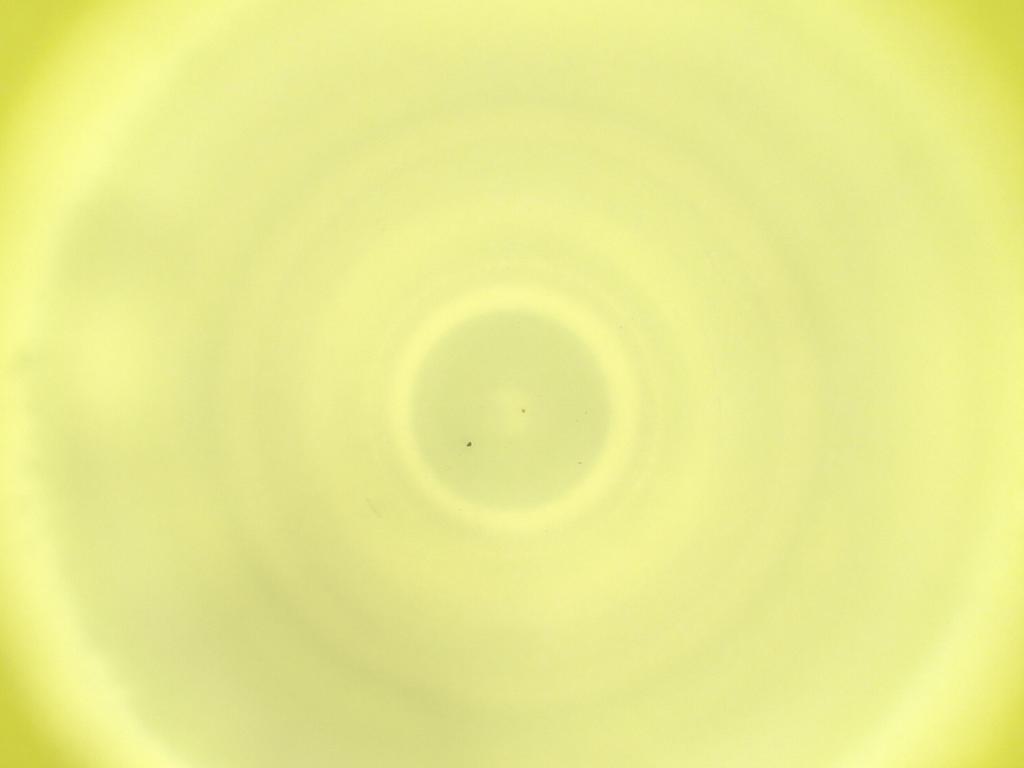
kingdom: Animalia
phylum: Arthropoda
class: Insecta
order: Diptera
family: Cecidomyiidae
